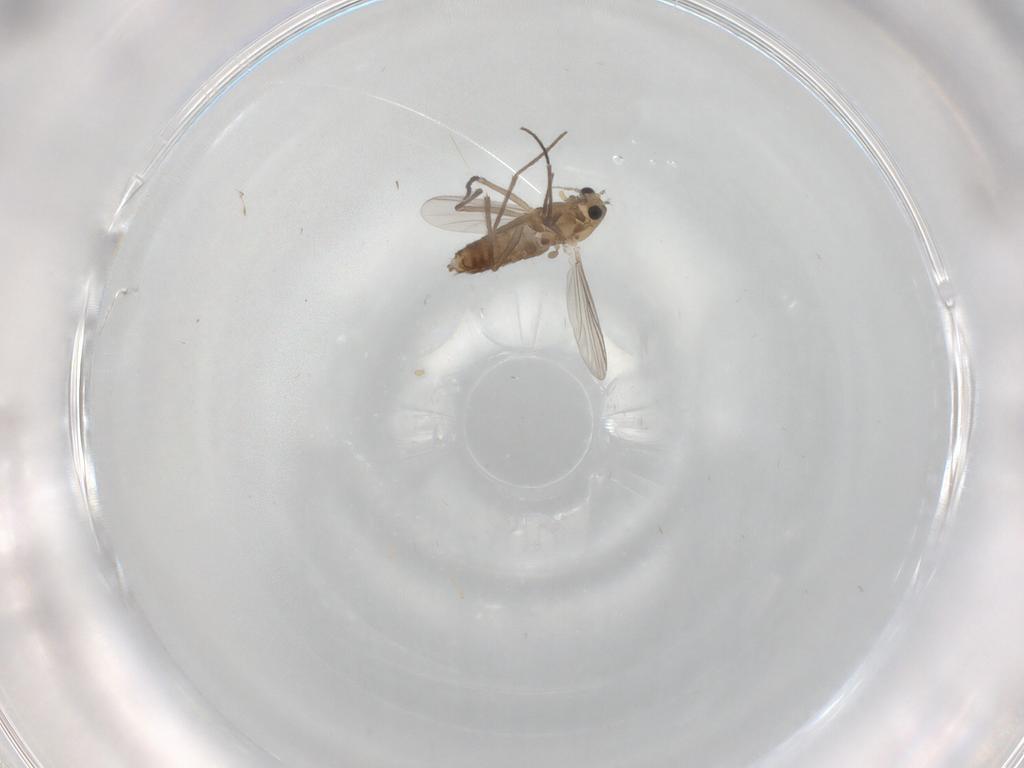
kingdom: Animalia
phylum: Arthropoda
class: Insecta
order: Diptera
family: Chironomidae
